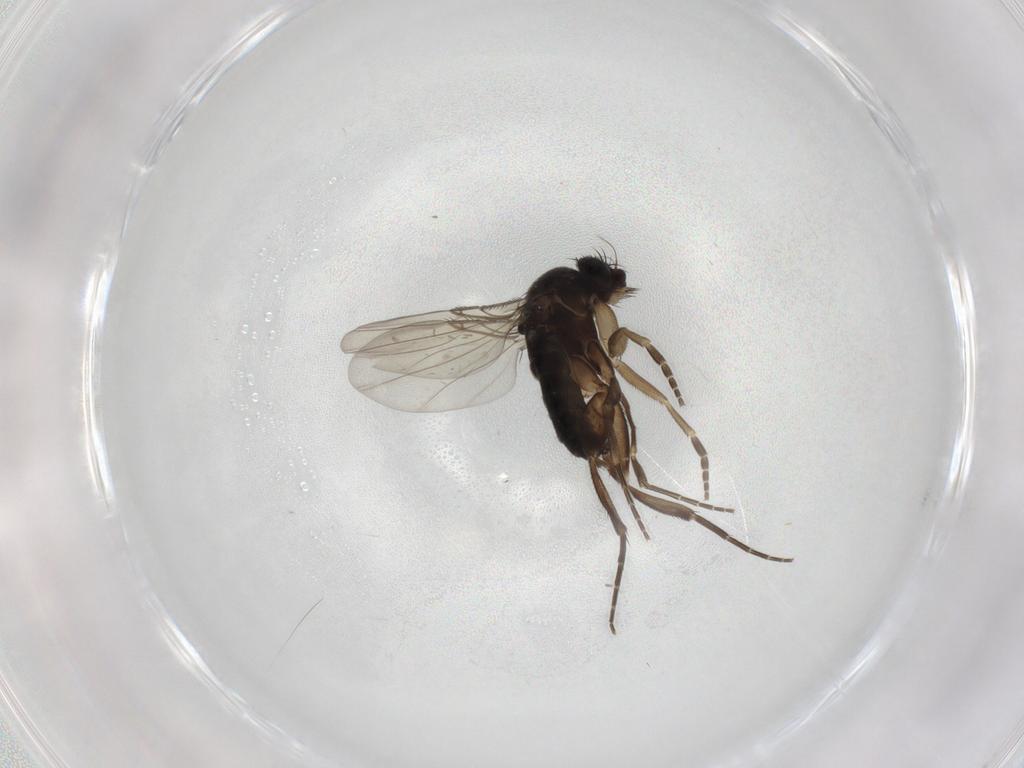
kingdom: Animalia
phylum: Arthropoda
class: Insecta
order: Diptera
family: Phoridae
